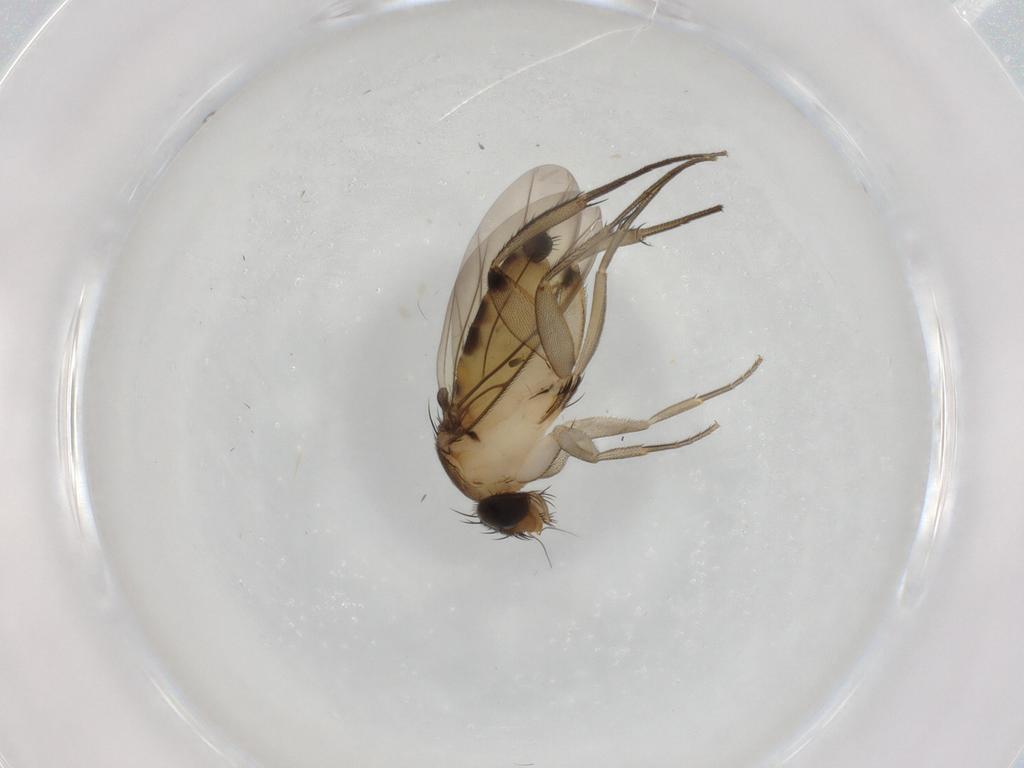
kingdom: Animalia
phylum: Arthropoda
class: Insecta
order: Diptera
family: Phoridae
